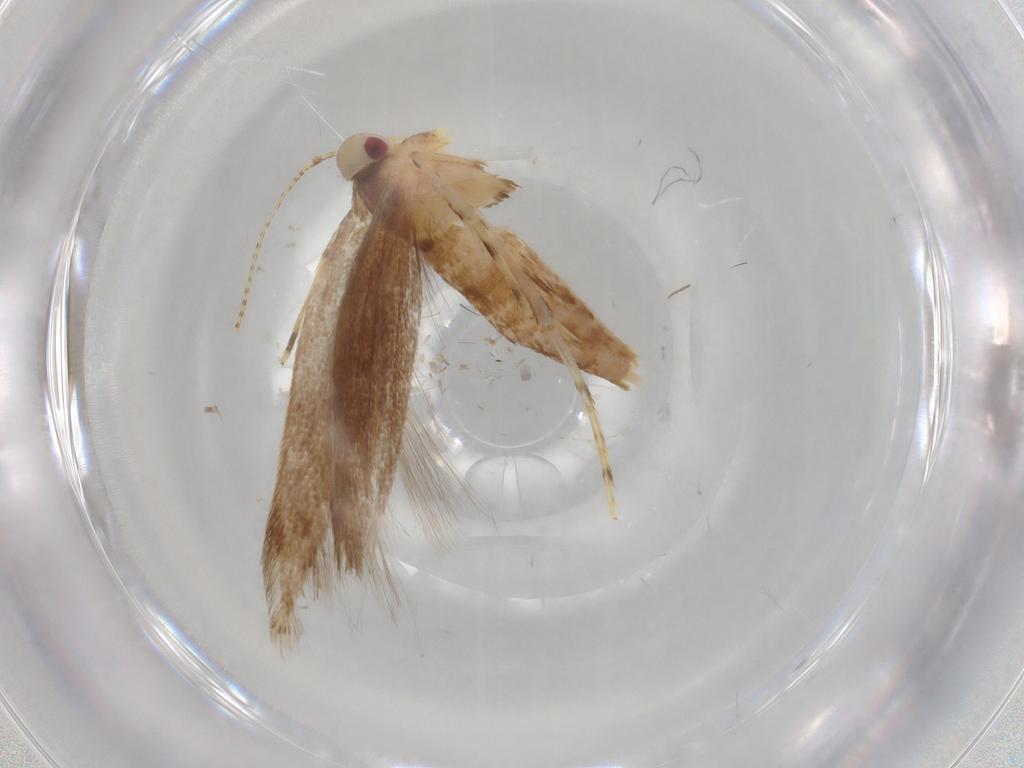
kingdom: Animalia
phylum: Arthropoda
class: Insecta
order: Lepidoptera
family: Cosmopterigidae
